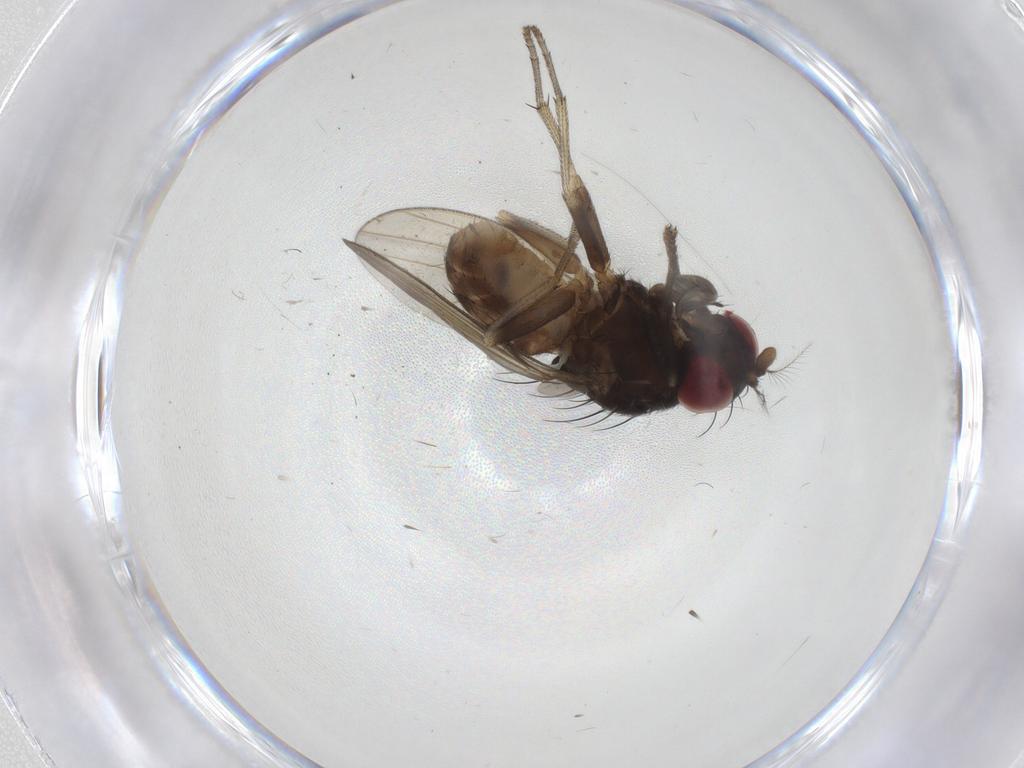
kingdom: Animalia
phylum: Arthropoda
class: Insecta
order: Diptera
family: Lauxaniidae
